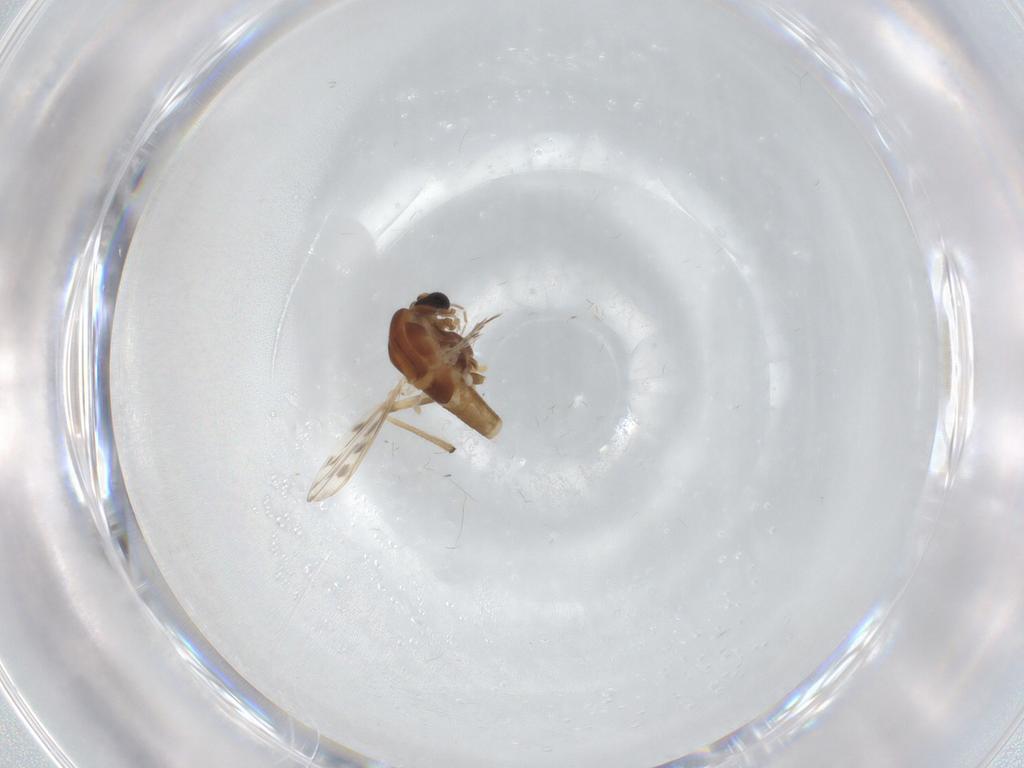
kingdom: Animalia
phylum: Arthropoda
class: Insecta
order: Diptera
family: Chironomidae
